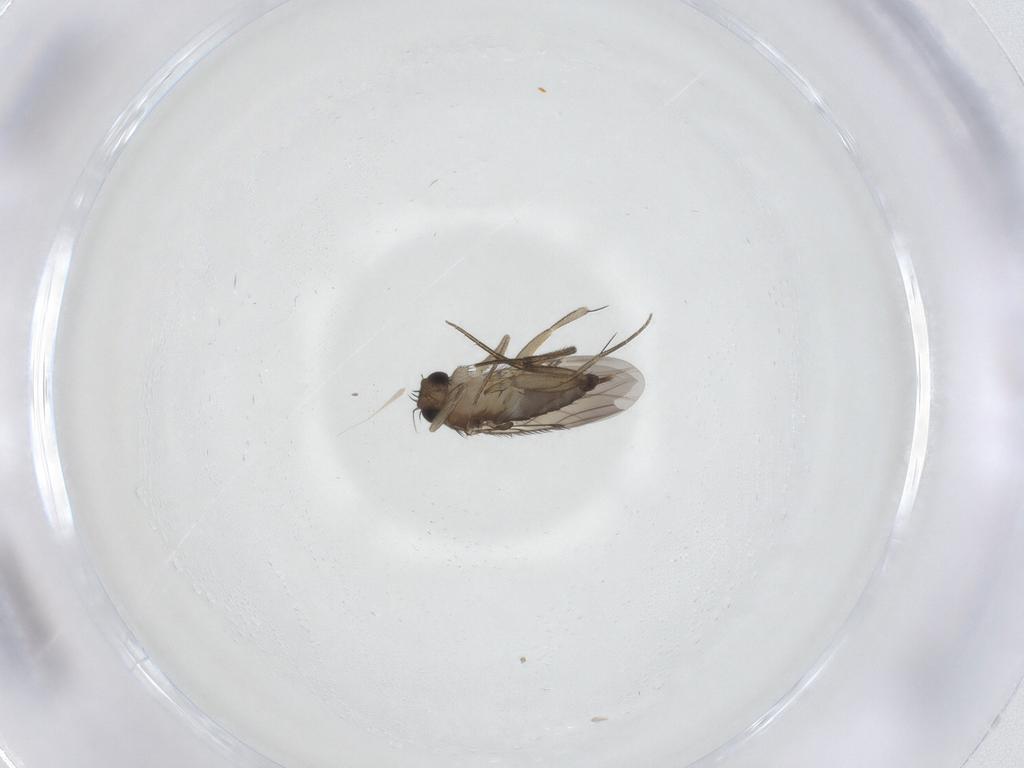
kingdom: Animalia
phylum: Arthropoda
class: Insecta
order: Diptera
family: Phoridae
